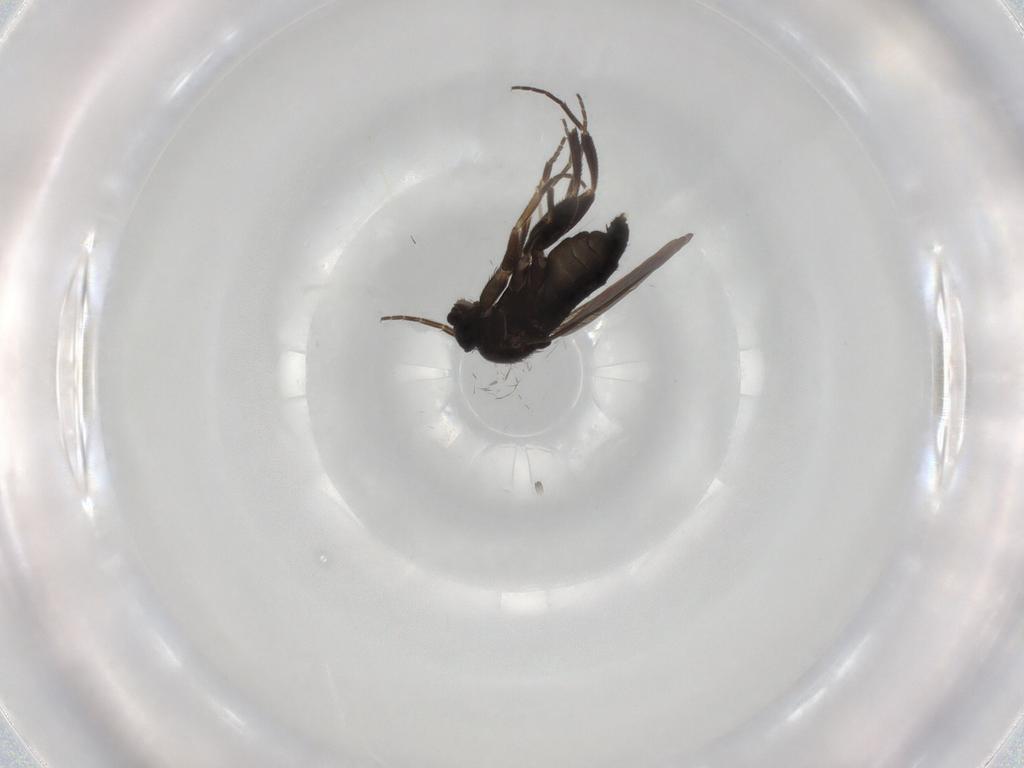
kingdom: Animalia
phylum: Arthropoda
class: Insecta
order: Diptera
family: Phoridae
